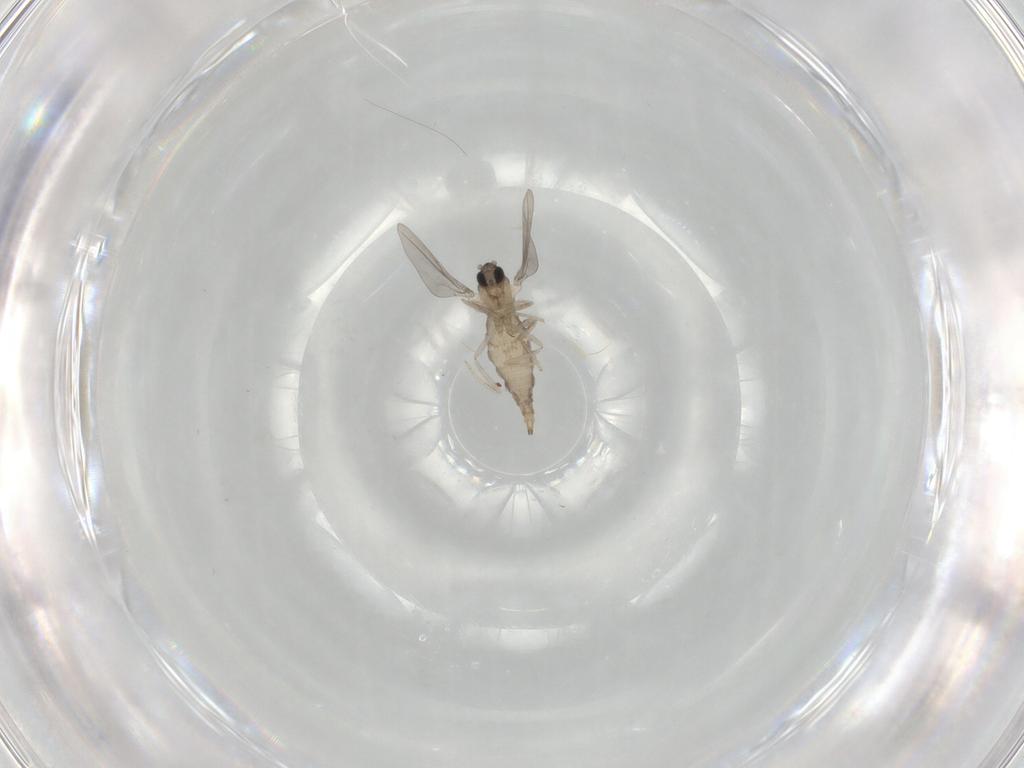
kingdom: Animalia
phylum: Arthropoda
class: Insecta
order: Diptera
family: Cecidomyiidae
